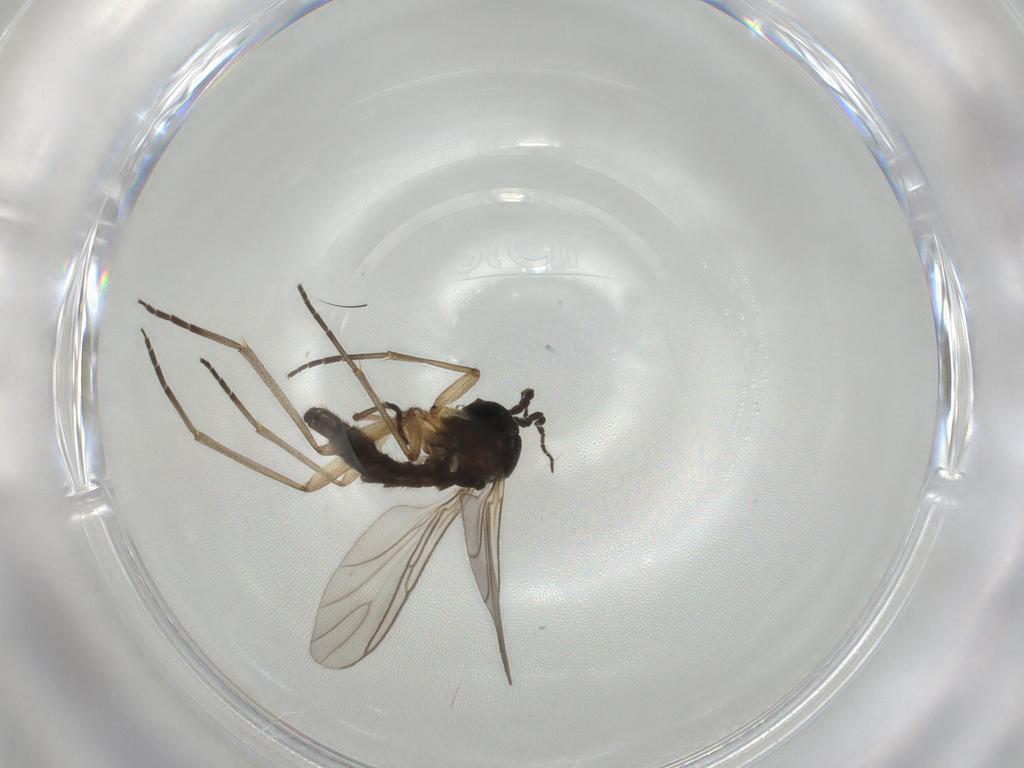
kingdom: Animalia
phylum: Arthropoda
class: Insecta
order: Diptera
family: Sciaridae
